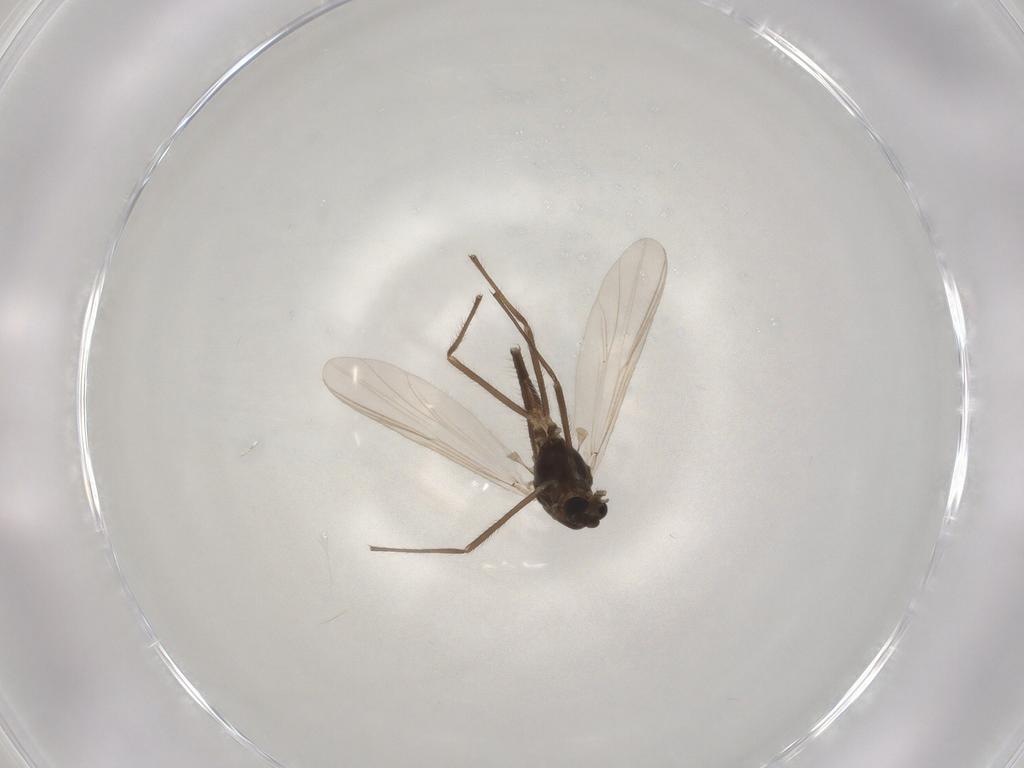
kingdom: Animalia
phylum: Arthropoda
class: Insecta
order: Diptera
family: Chironomidae
